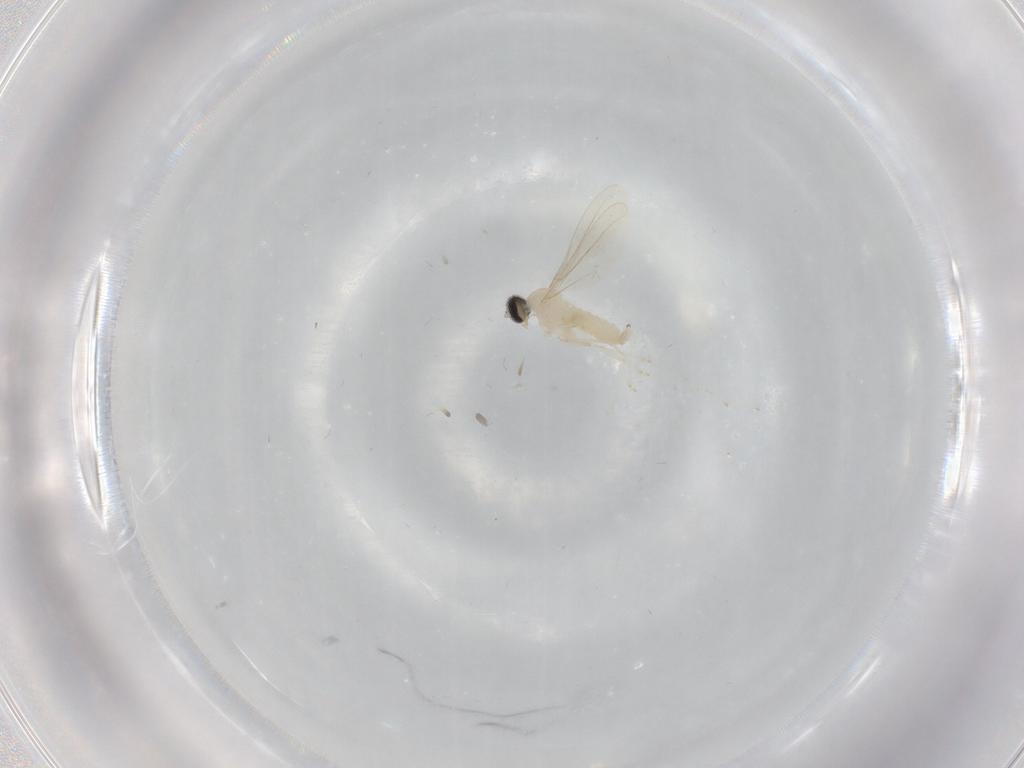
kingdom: Animalia
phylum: Arthropoda
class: Insecta
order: Diptera
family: Cecidomyiidae
